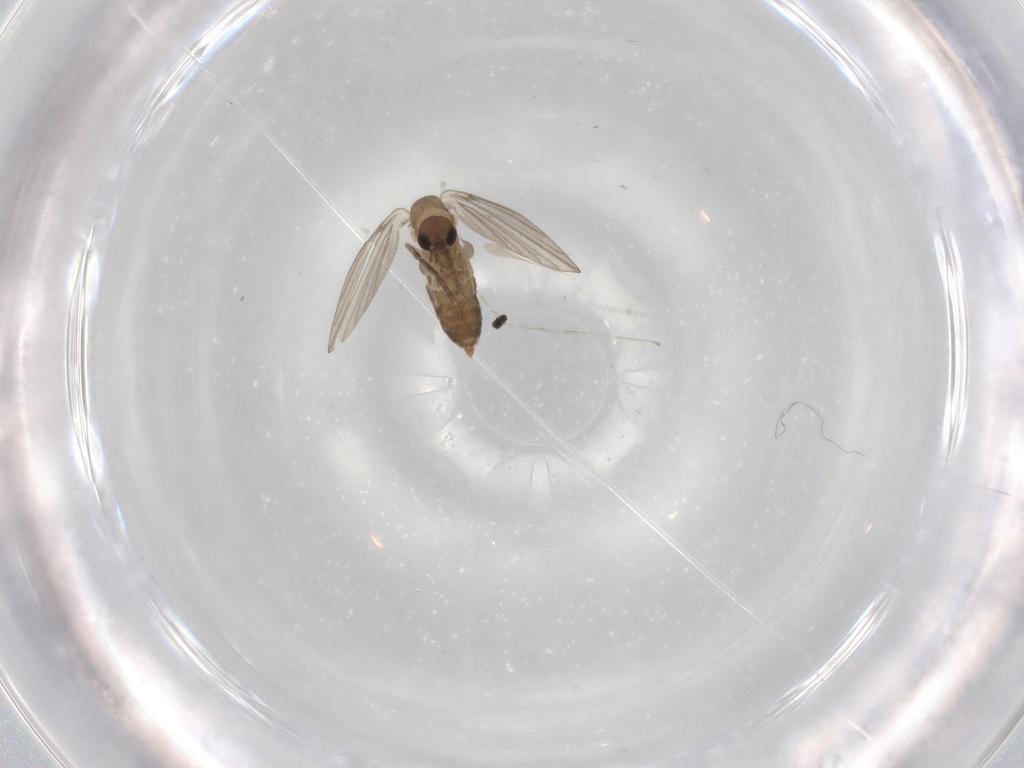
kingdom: Animalia
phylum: Arthropoda
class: Insecta
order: Diptera
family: Cecidomyiidae
